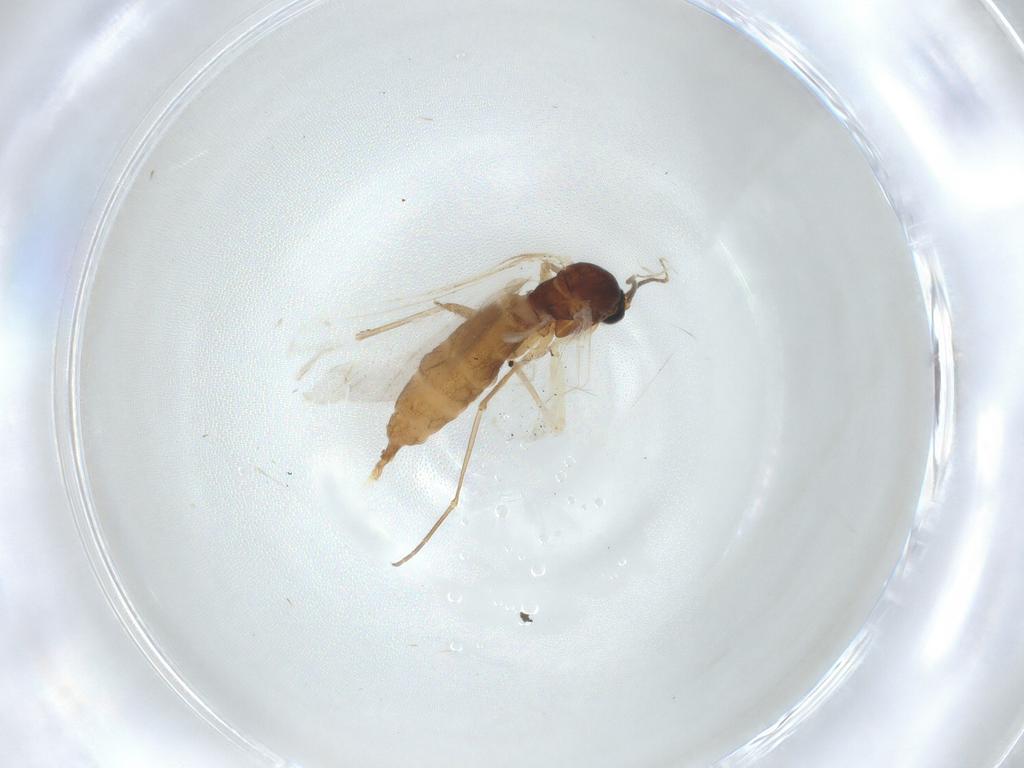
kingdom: Animalia
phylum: Arthropoda
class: Insecta
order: Diptera
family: Sciaridae
